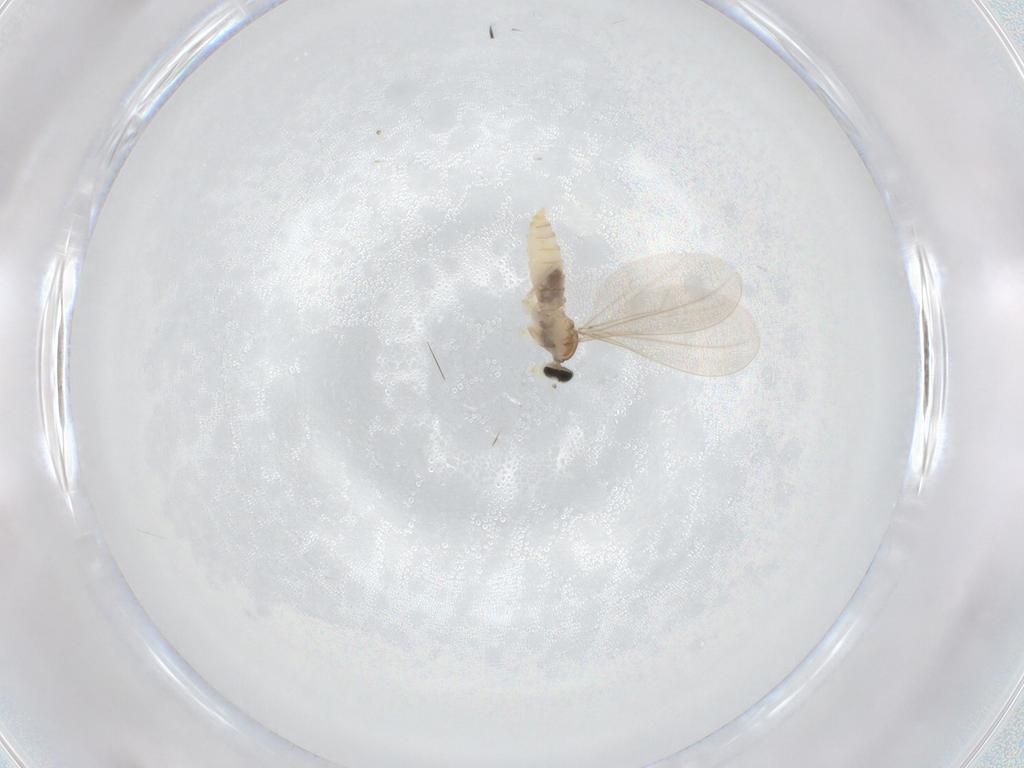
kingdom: Animalia
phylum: Arthropoda
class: Insecta
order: Diptera
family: Cecidomyiidae
